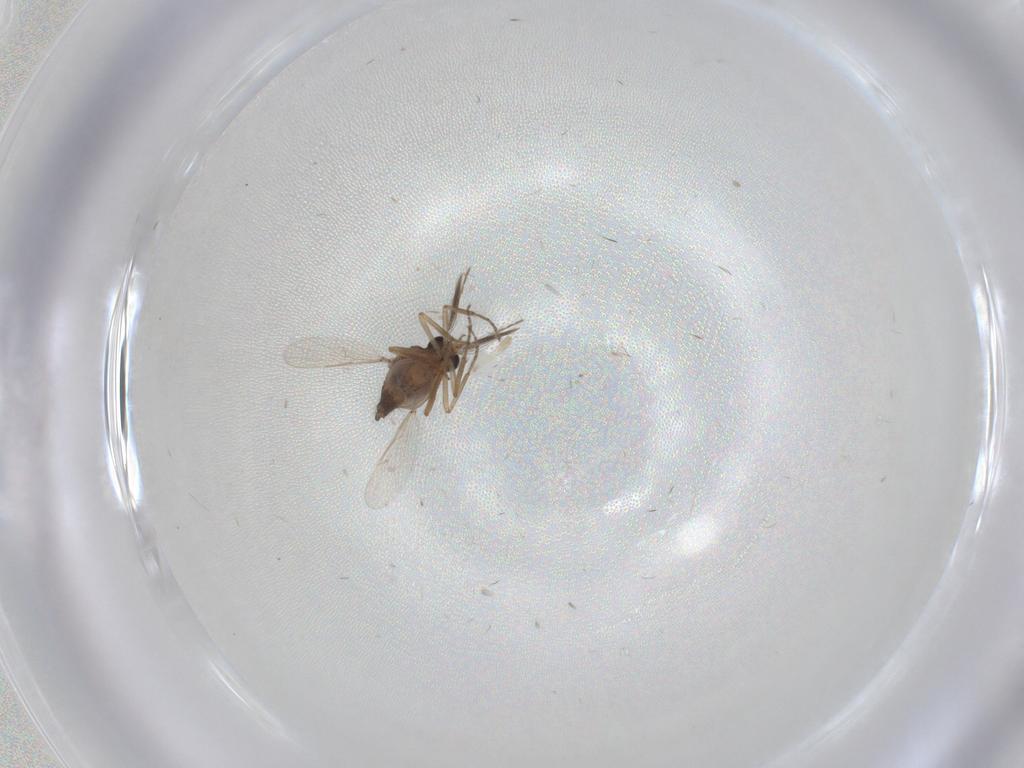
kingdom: Animalia
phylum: Arthropoda
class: Insecta
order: Diptera
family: Ceratopogonidae
